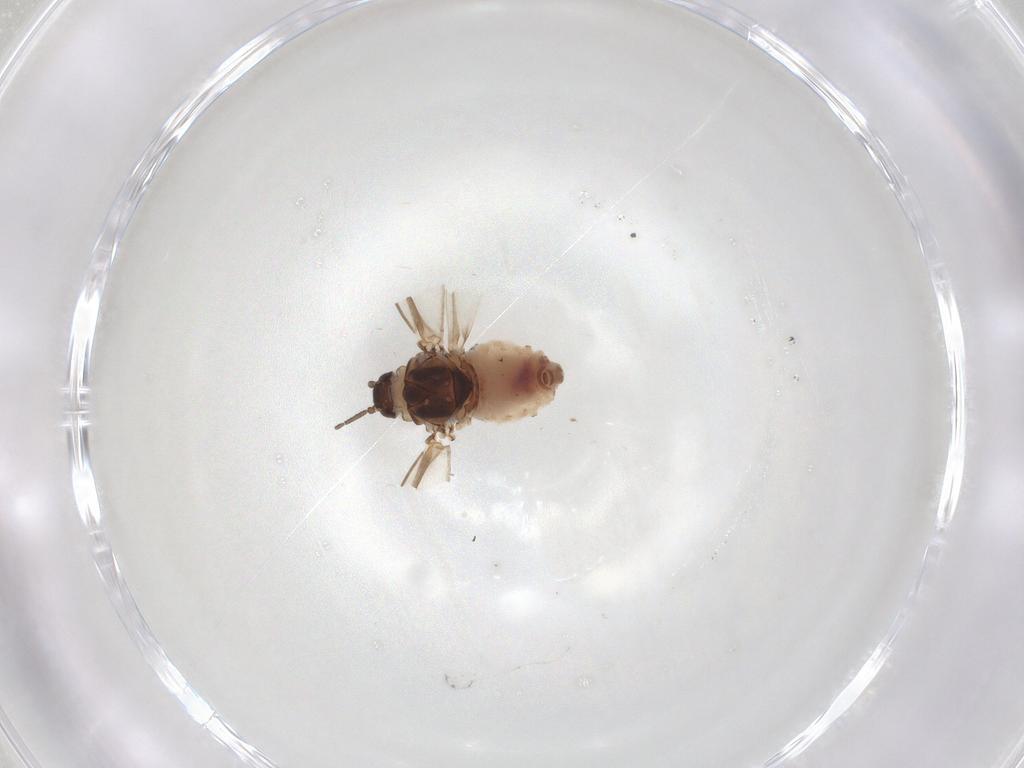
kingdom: Animalia
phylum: Arthropoda
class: Insecta
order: Hemiptera
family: Aphididae
